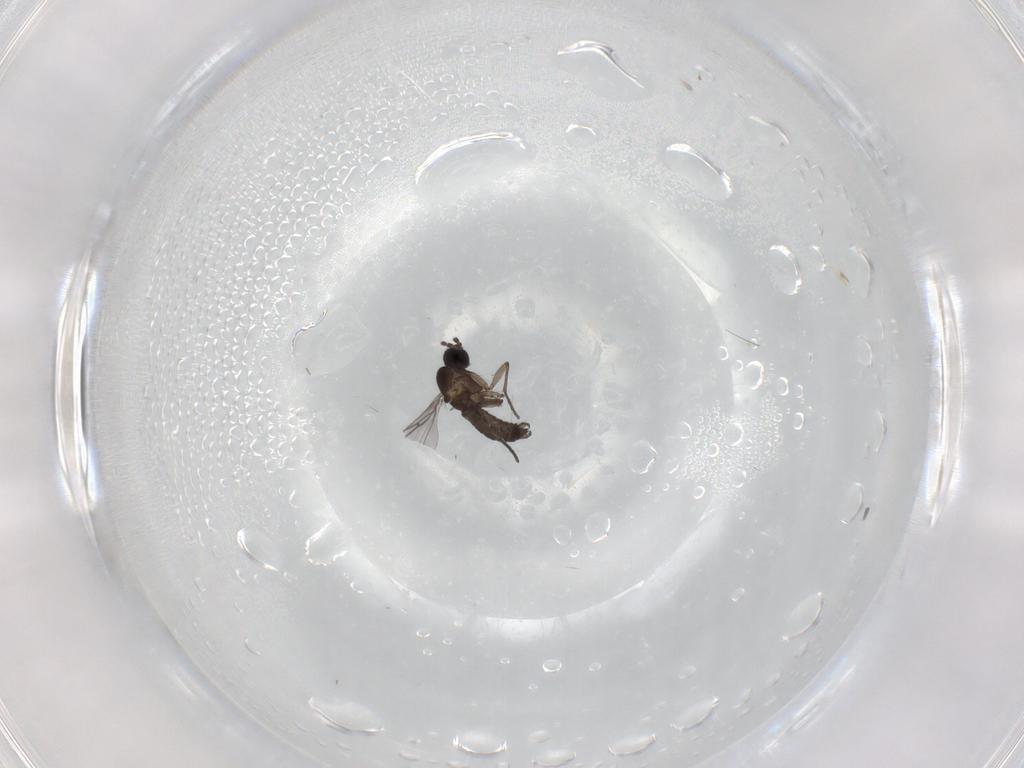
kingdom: Animalia
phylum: Arthropoda
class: Insecta
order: Diptera
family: Sciaridae
